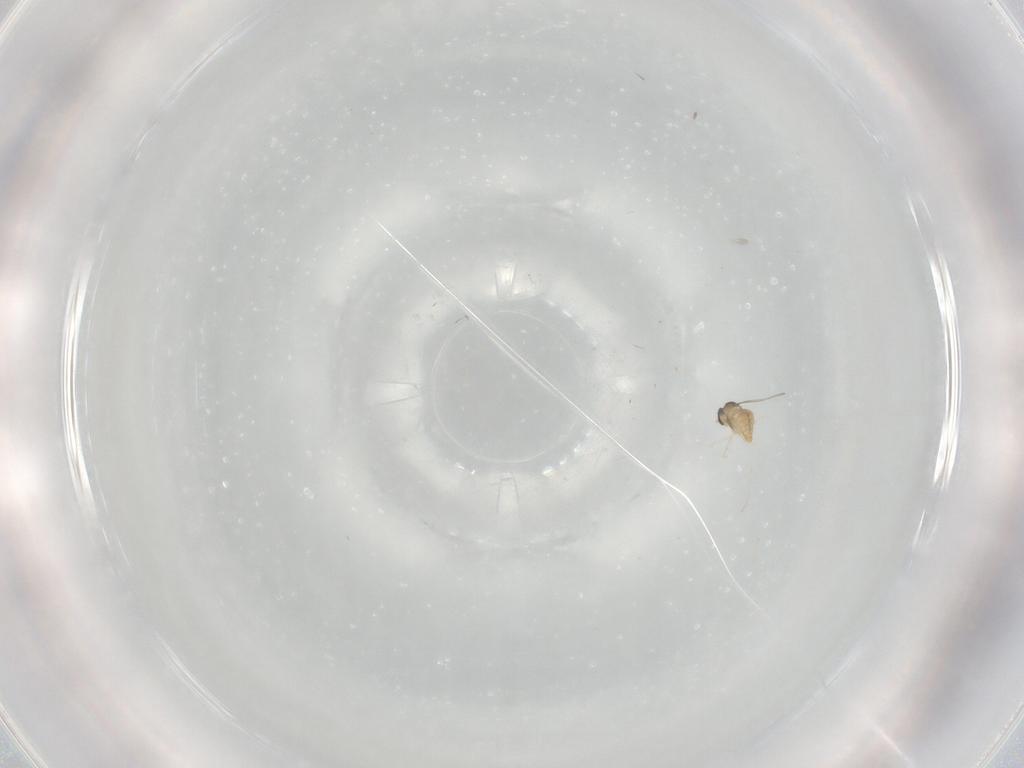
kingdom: Animalia
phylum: Arthropoda
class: Insecta
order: Diptera
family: Cecidomyiidae
